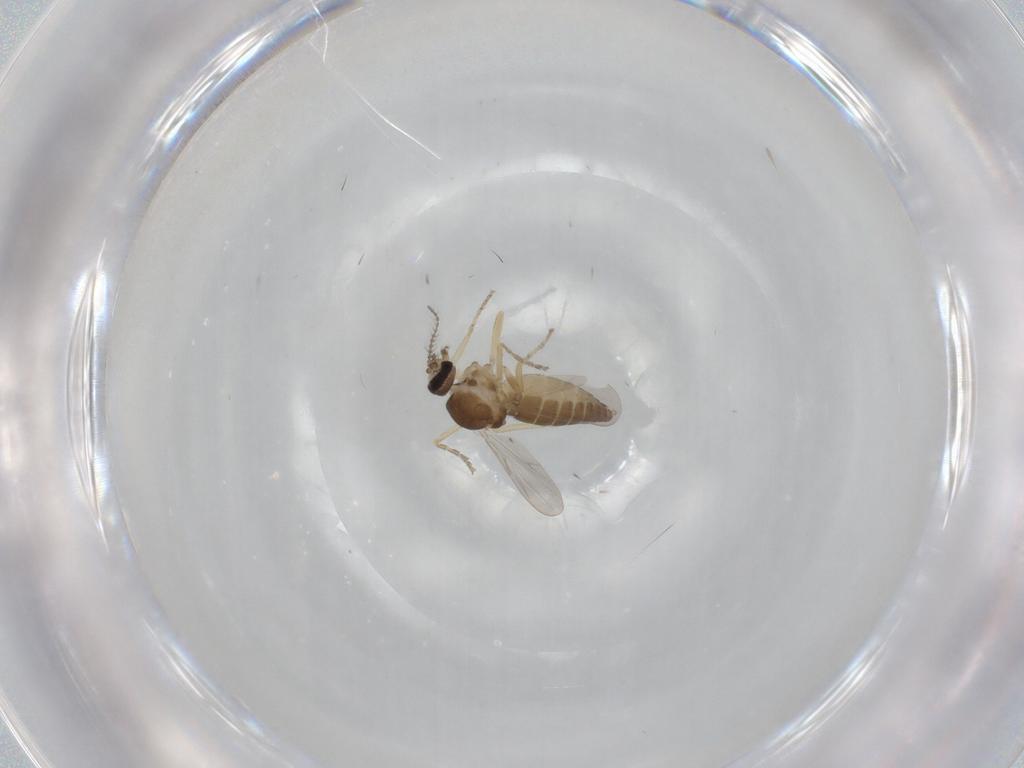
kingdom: Animalia
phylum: Arthropoda
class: Insecta
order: Diptera
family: Ceratopogonidae
